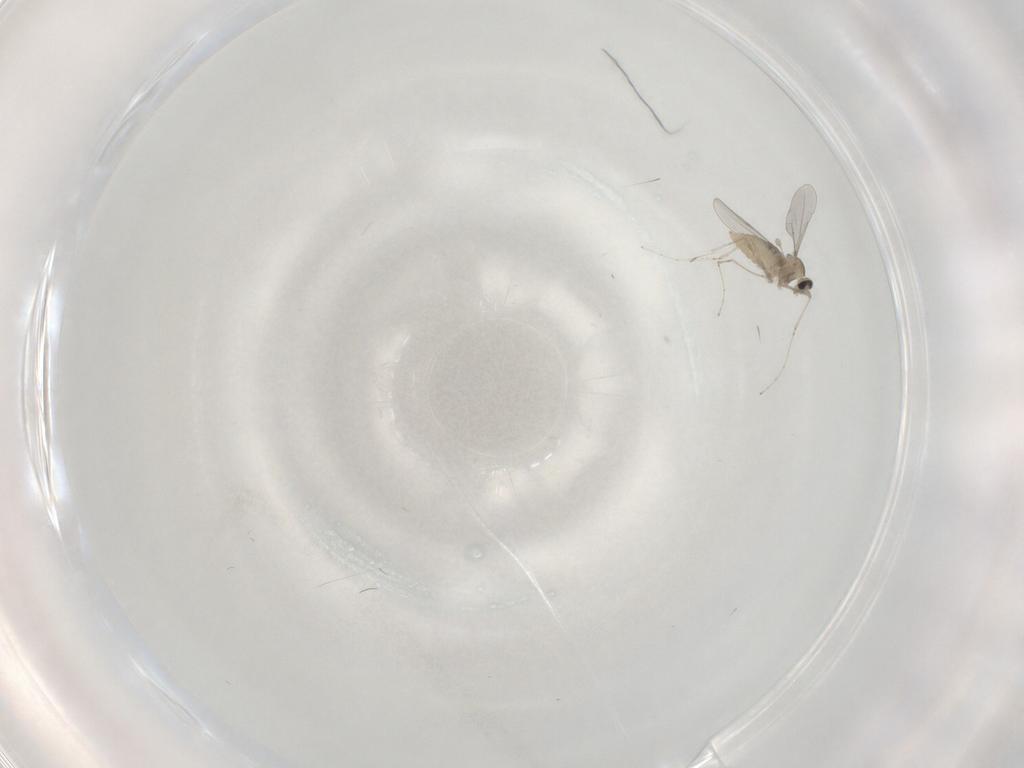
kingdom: Animalia
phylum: Arthropoda
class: Insecta
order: Diptera
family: Cecidomyiidae
